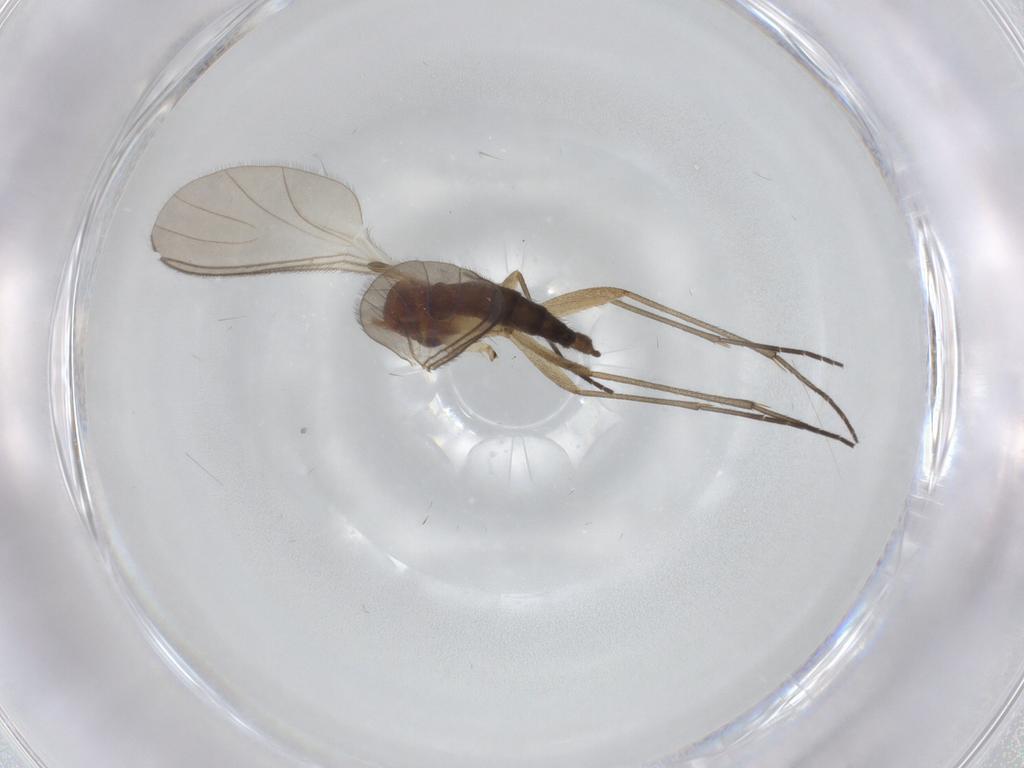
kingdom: Animalia
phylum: Arthropoda
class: Insecta
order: Diptera
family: Sciaridae
